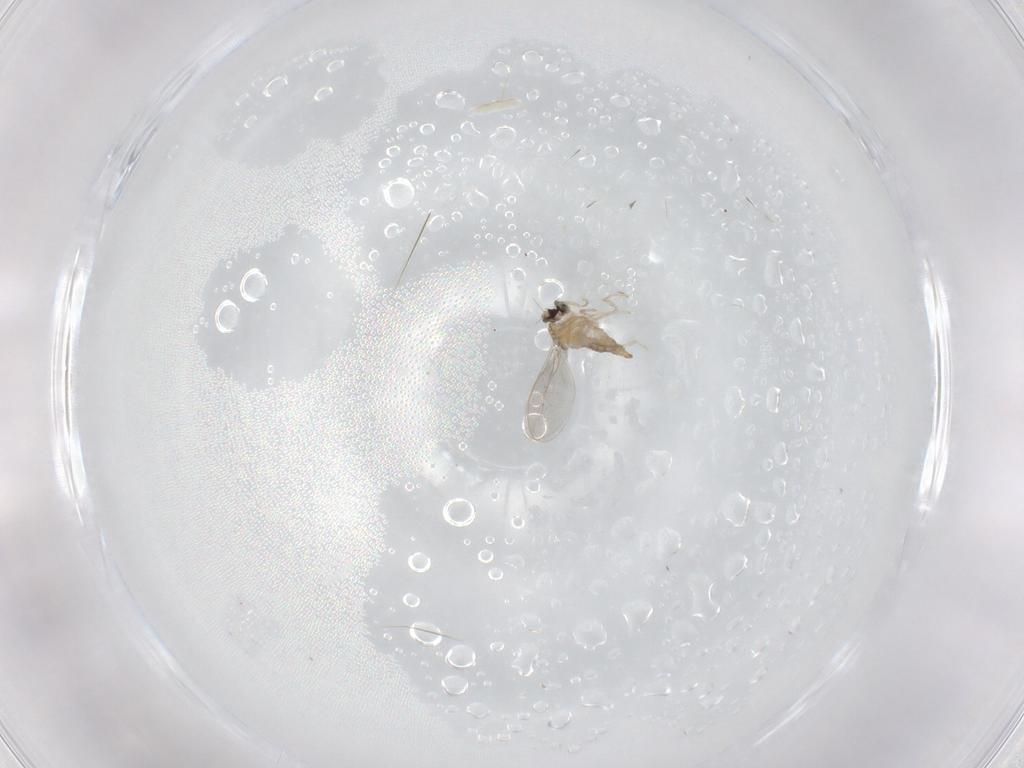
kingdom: Animalia
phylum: Arthropoda
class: Insecta
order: Diptera
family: Cecidomyiidae
